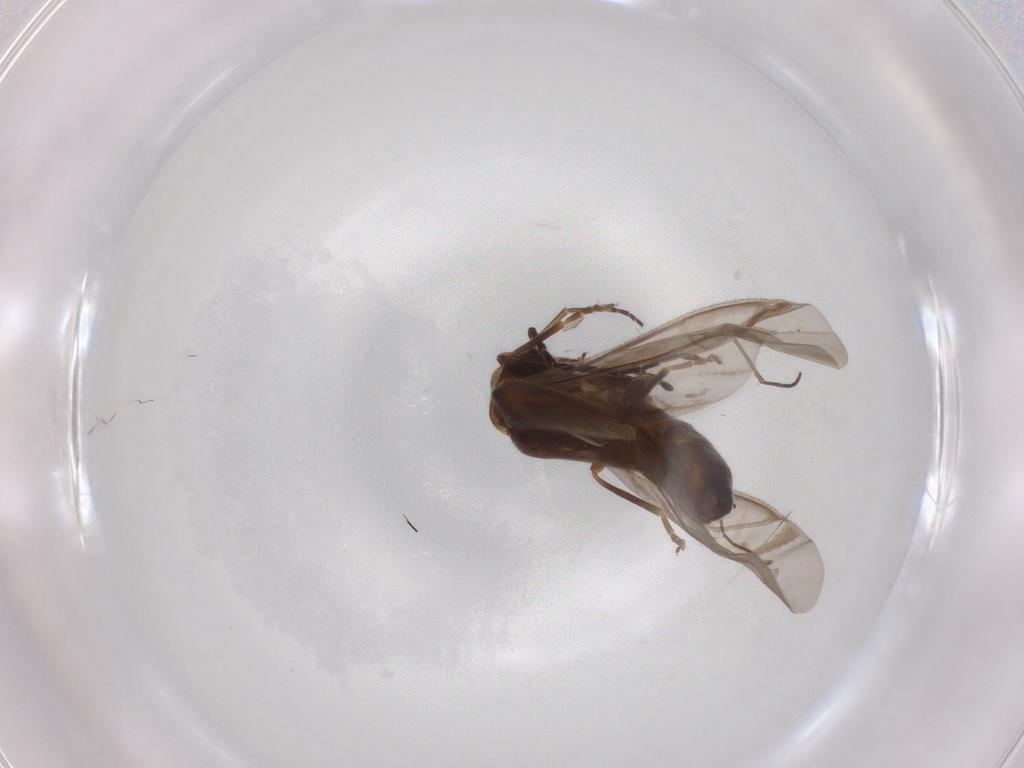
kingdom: Animalia
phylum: Arthropoda
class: Insecta
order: Coleoptera
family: Cantharidae
